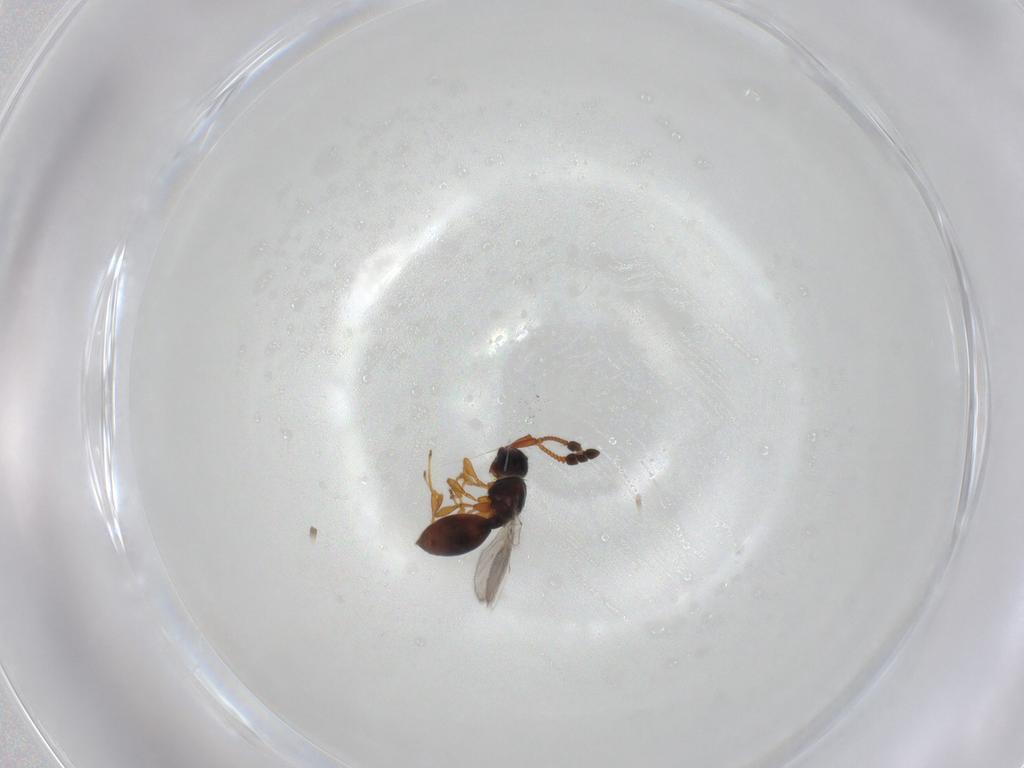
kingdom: Animalia
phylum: Arthropoda
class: Insecta
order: Hymenoptera
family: Diapriidae
